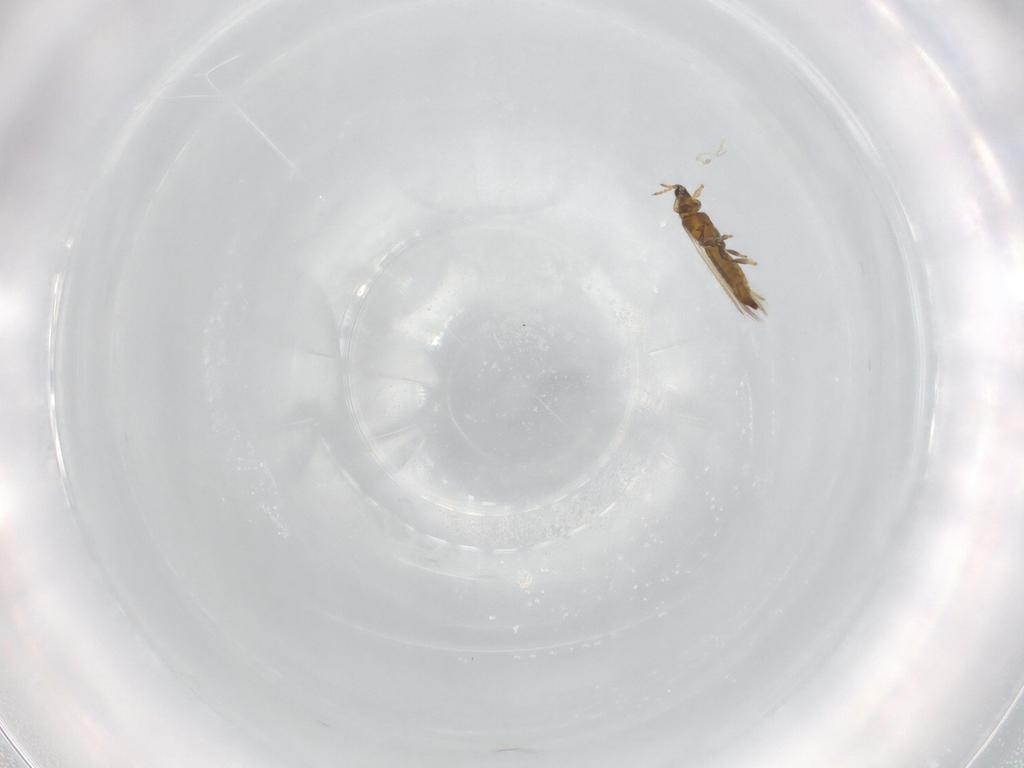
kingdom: Animalia
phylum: Arthropoda
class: Insecta
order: Thysanoptera
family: Thripidae
